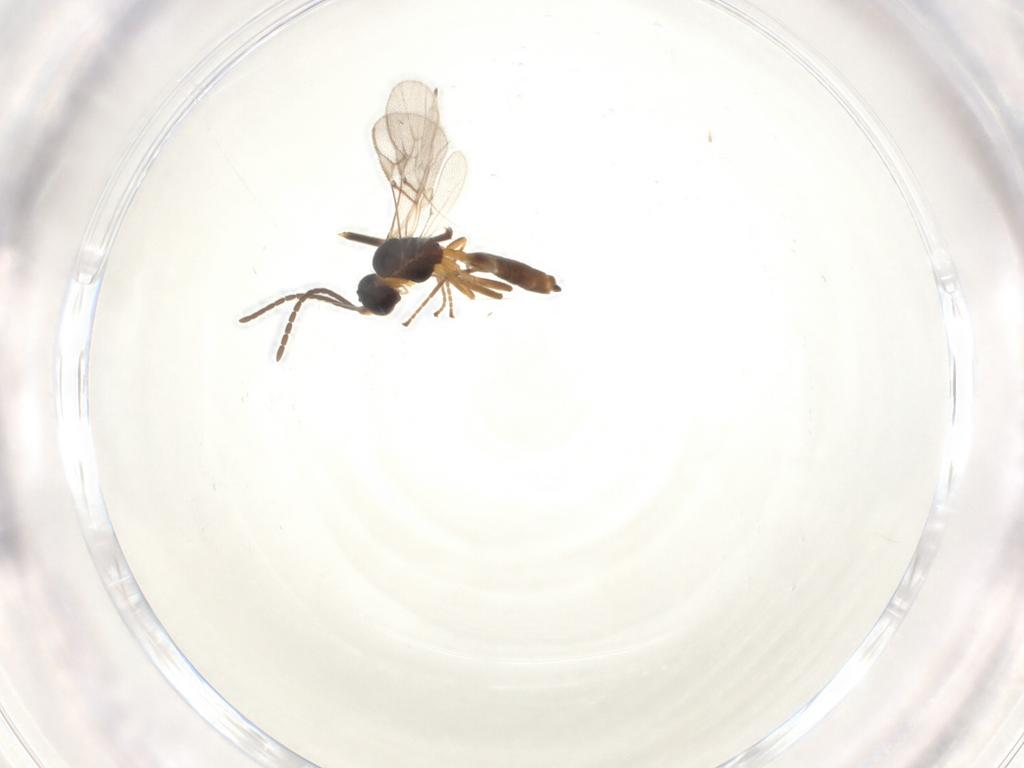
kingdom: Animalia
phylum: Arthropoda
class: Insecta
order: Hymenoptera
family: Ichneumonidae
